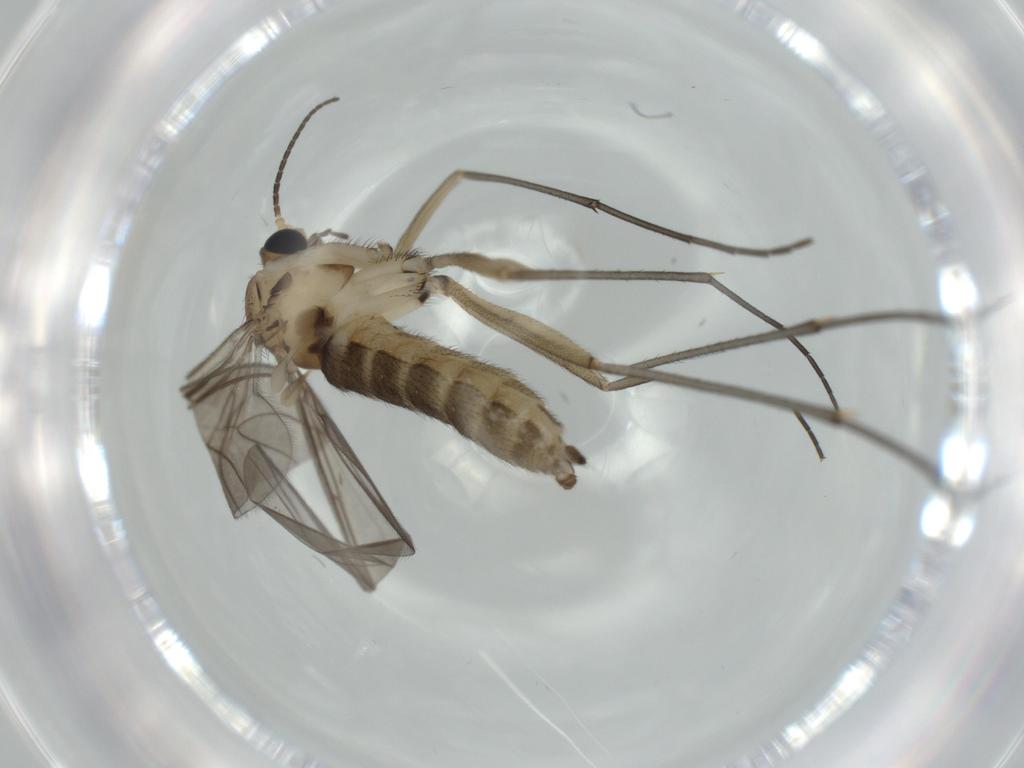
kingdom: Animalia
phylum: Arthropoda
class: Insecta
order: Diptera
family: Sciaridae
